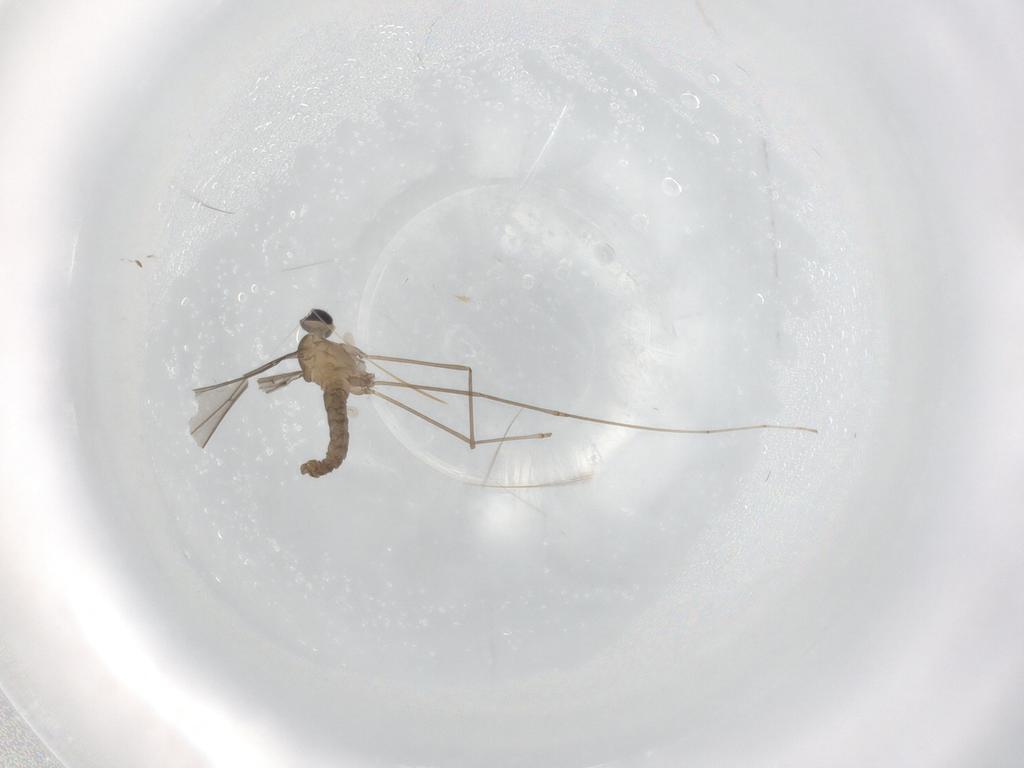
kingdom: Animalia
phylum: Arthropoda
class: Insecta
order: Diptera
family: Cecidomyiidae
